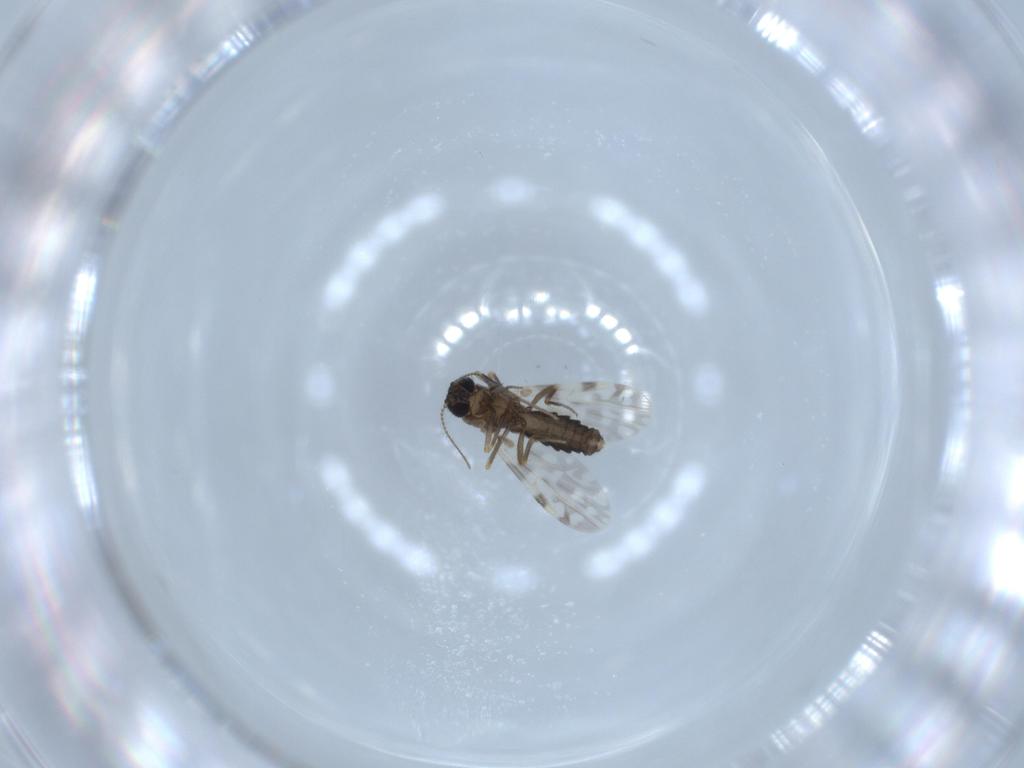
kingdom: Animalia
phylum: Arthropoda
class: Insecta
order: Diptera
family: Ceratopogonidae
